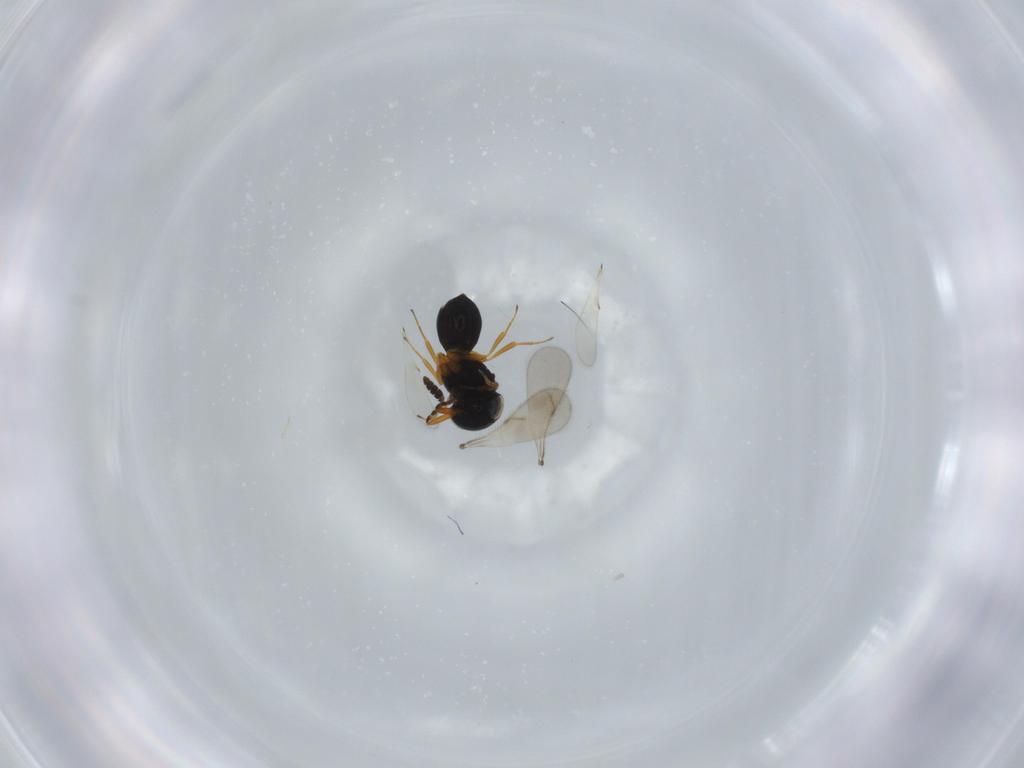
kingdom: Animalia
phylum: Arthropoda
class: Insecta
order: Hymenoptera
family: Scelionidae
